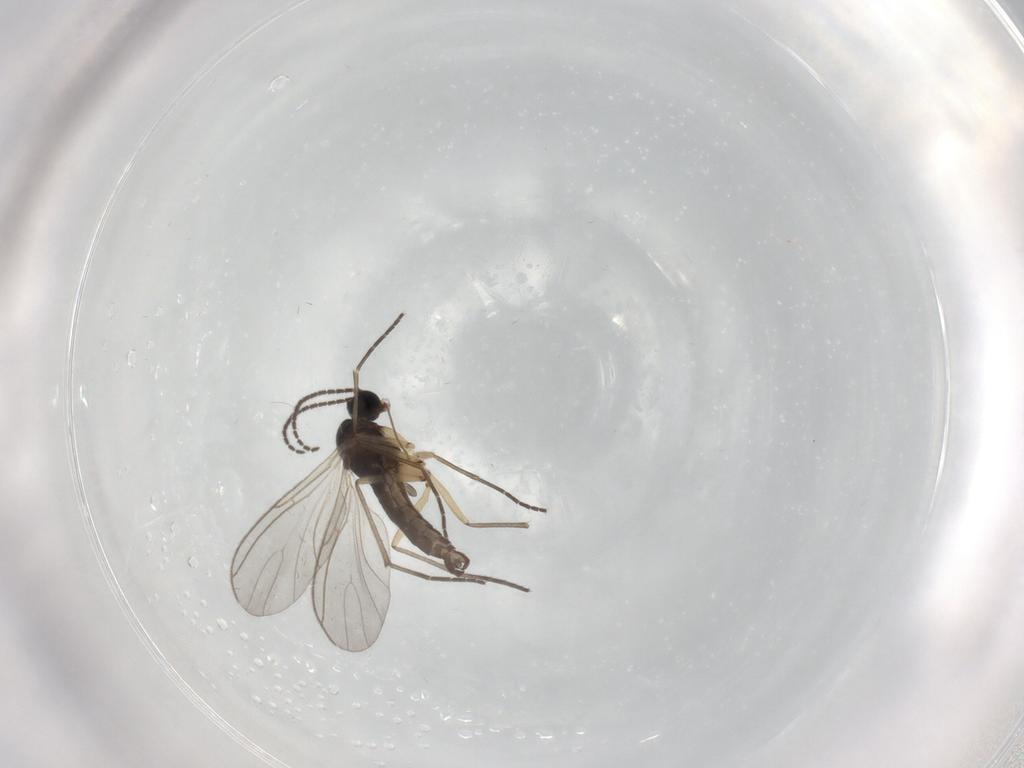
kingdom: Animalia
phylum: Arthropoda
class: Insecta
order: Diptera
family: Sciaridae
